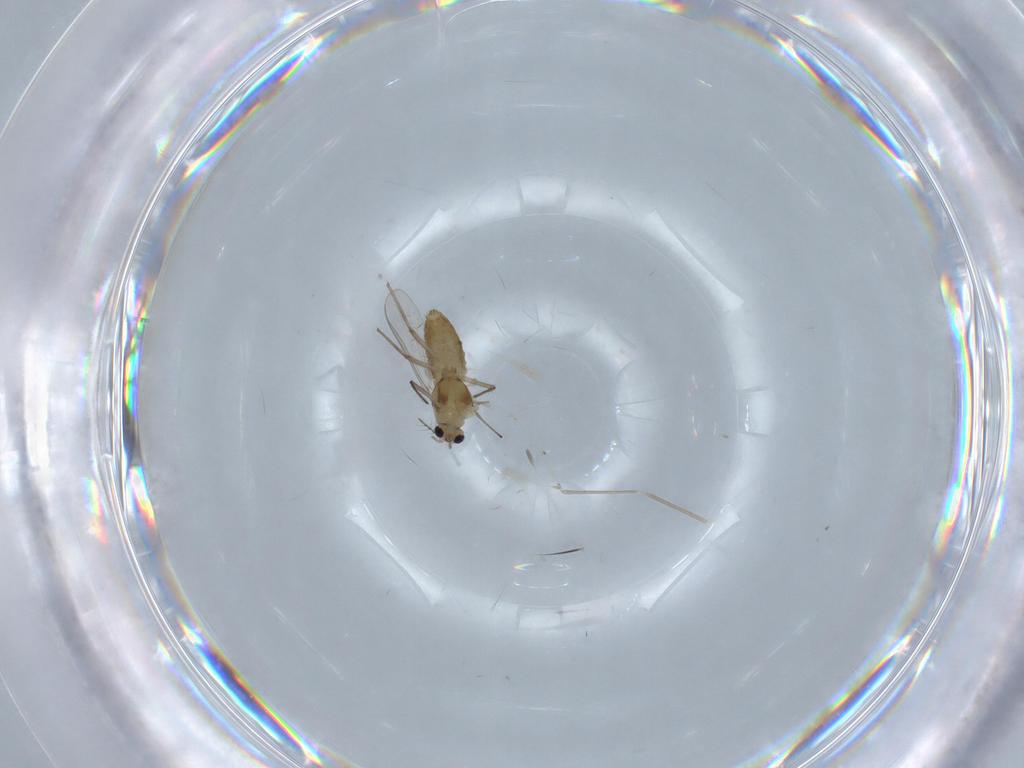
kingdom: Animalia
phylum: Arthropoda
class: Insecta
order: Diptera
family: Chironomidae
